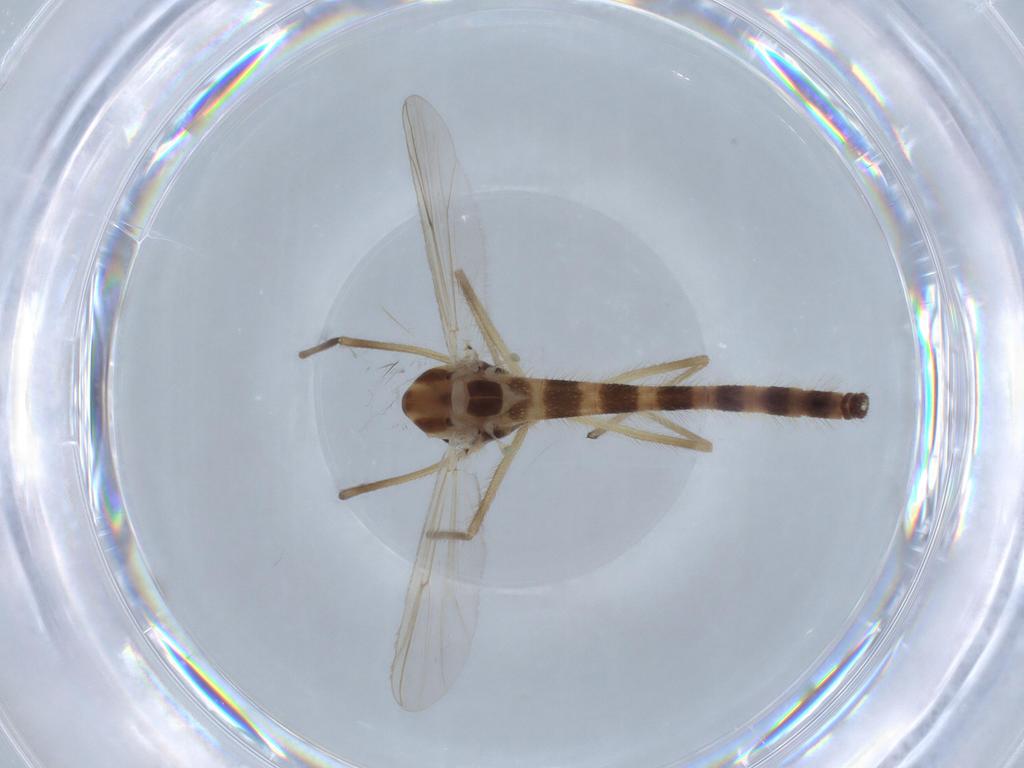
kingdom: Animalia
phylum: Arthropoda
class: Insecta
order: Diptera
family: Chironomidae
